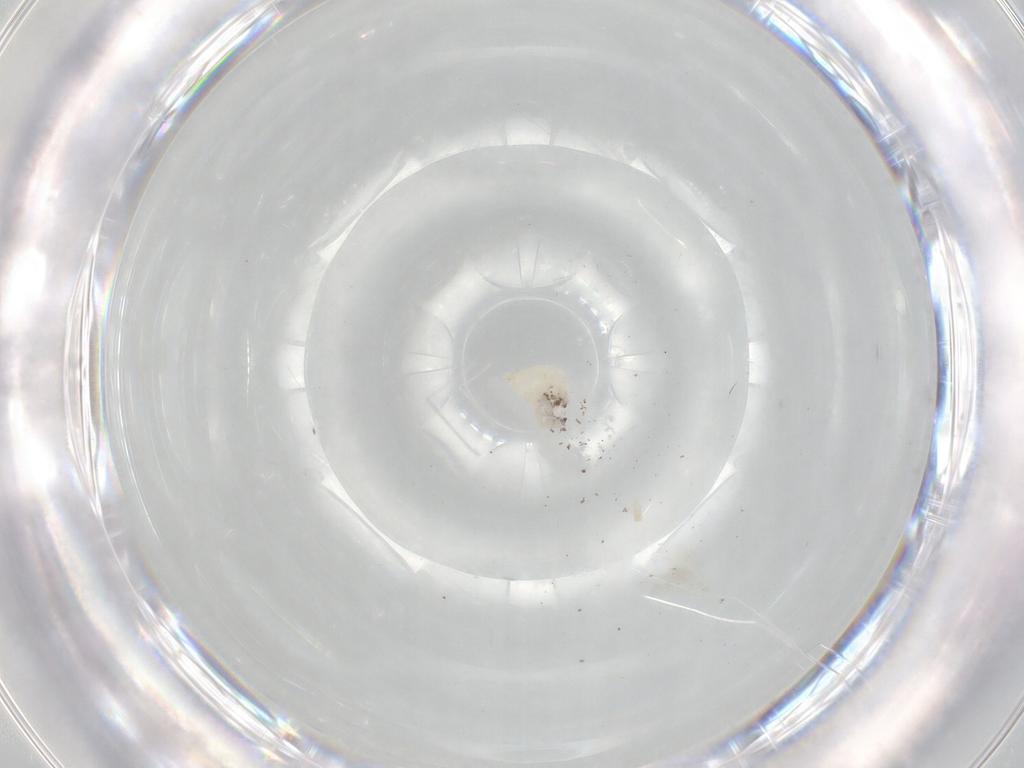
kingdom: Animalia
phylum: Arthropoda
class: Insecta
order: Diptera
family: Cecidomyiidae
